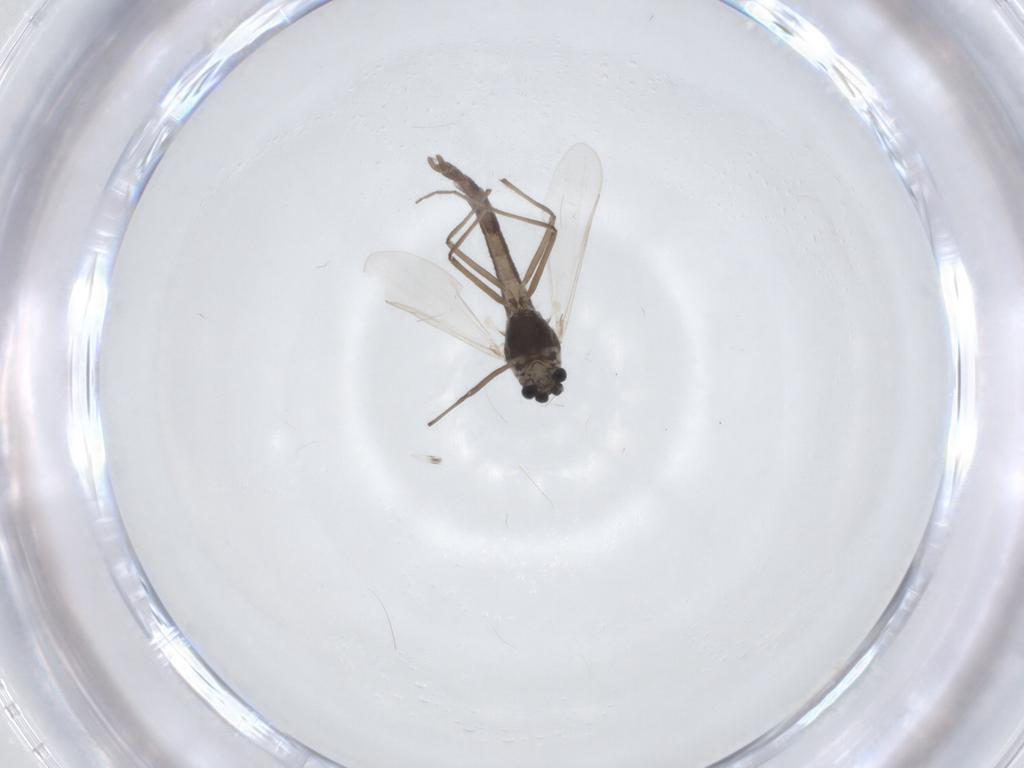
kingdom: Animalia
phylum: Arthropoda
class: Insecta
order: Diptera
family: Chironomidae
